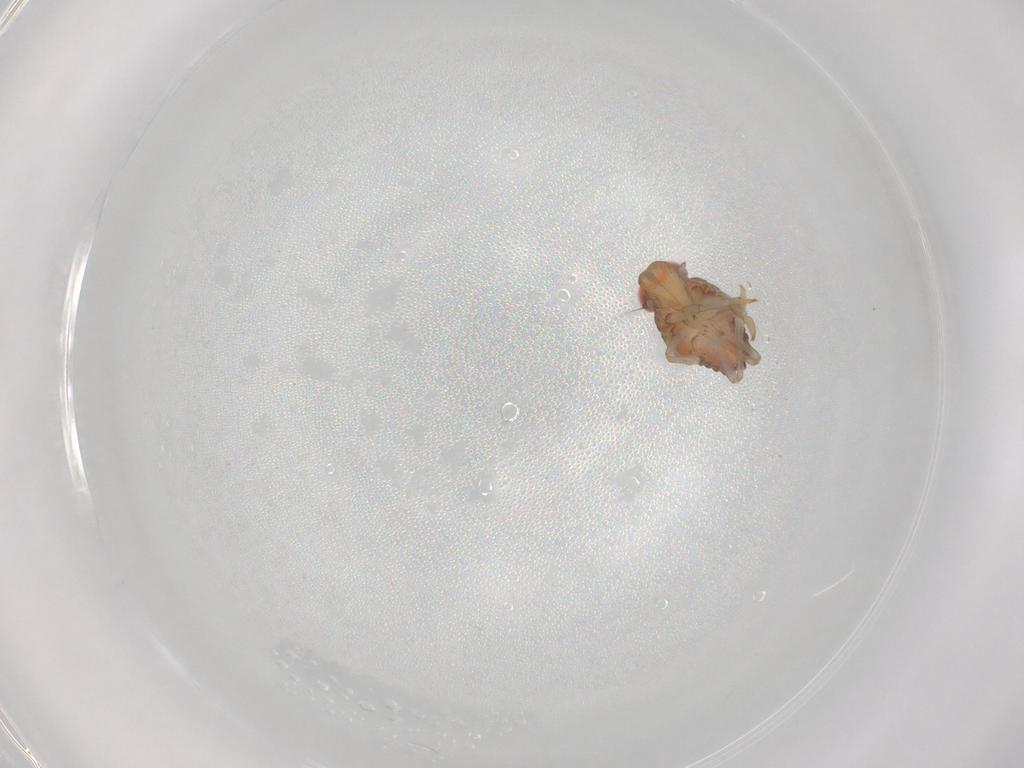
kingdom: Animalia
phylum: Arthropoda
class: Insecta
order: Hemiptera
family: Issidae
